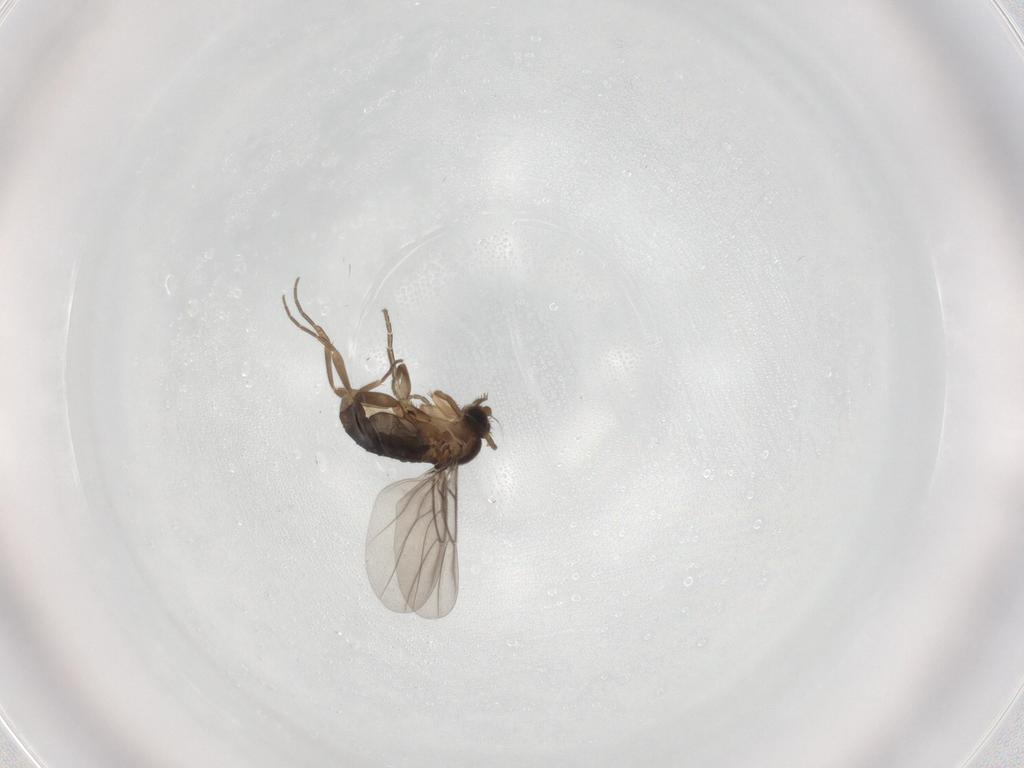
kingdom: Animalia
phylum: Arthropoda
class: Insecta
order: Diptera
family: Phoridae
